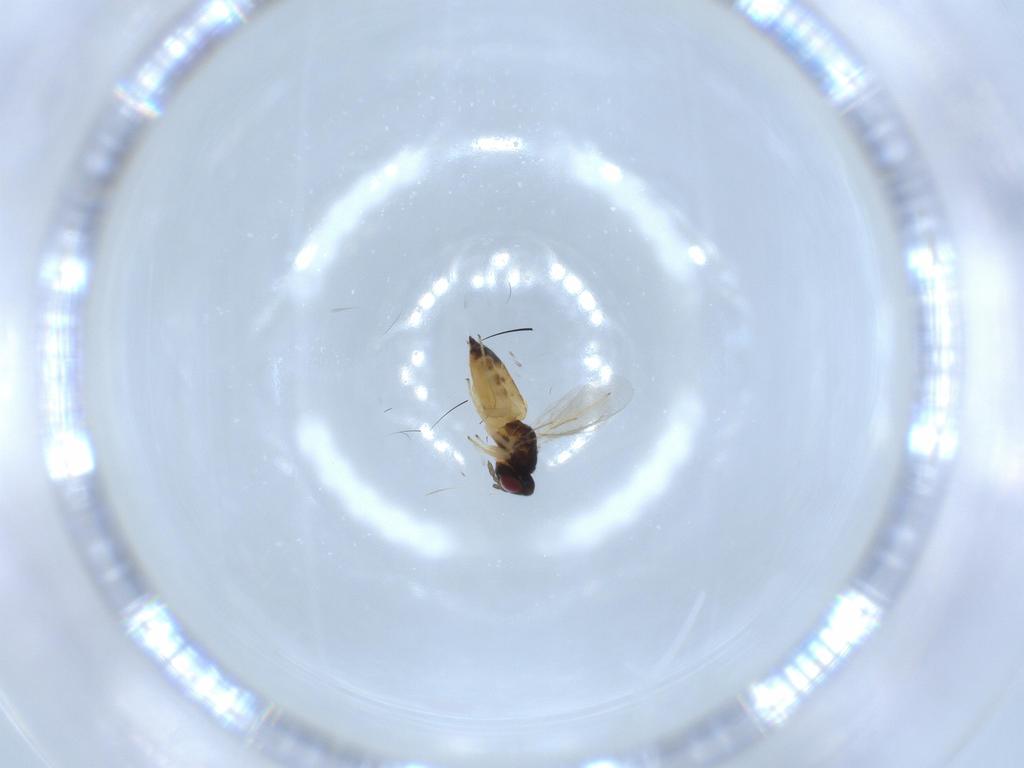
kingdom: Animalia
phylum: Arthropoda
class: Insecta
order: Hymenoptera
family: Eulophidae
